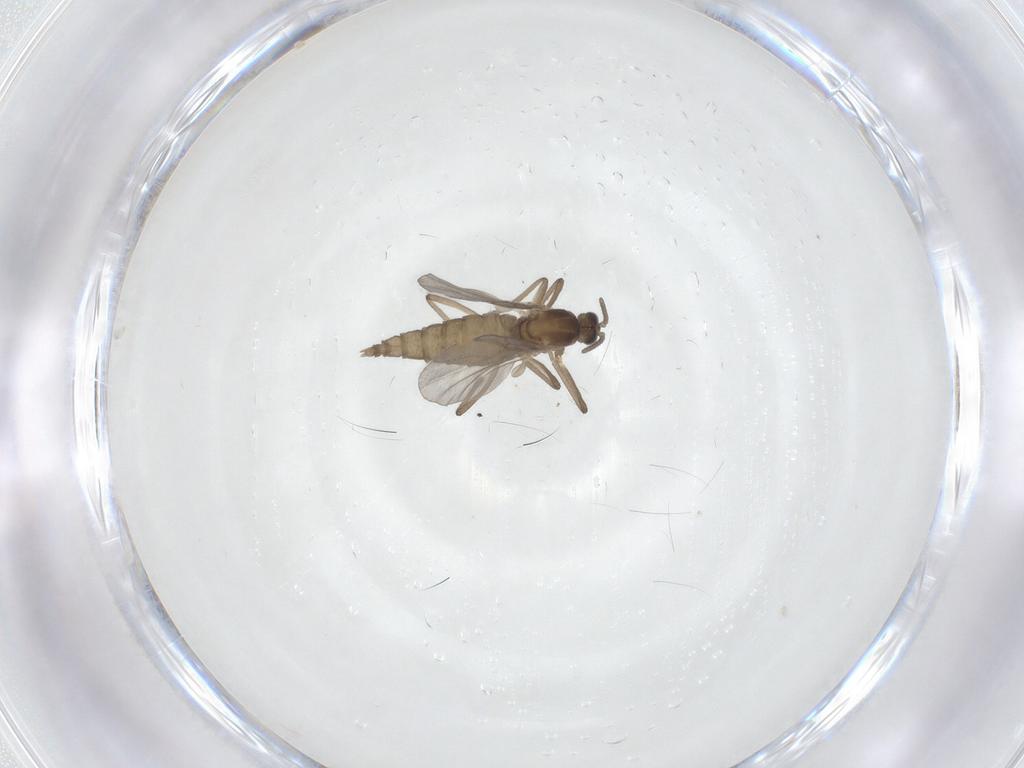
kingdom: Animalia
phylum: Arthropoda
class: Insecta
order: Diptera
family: Cecidomyiidae
